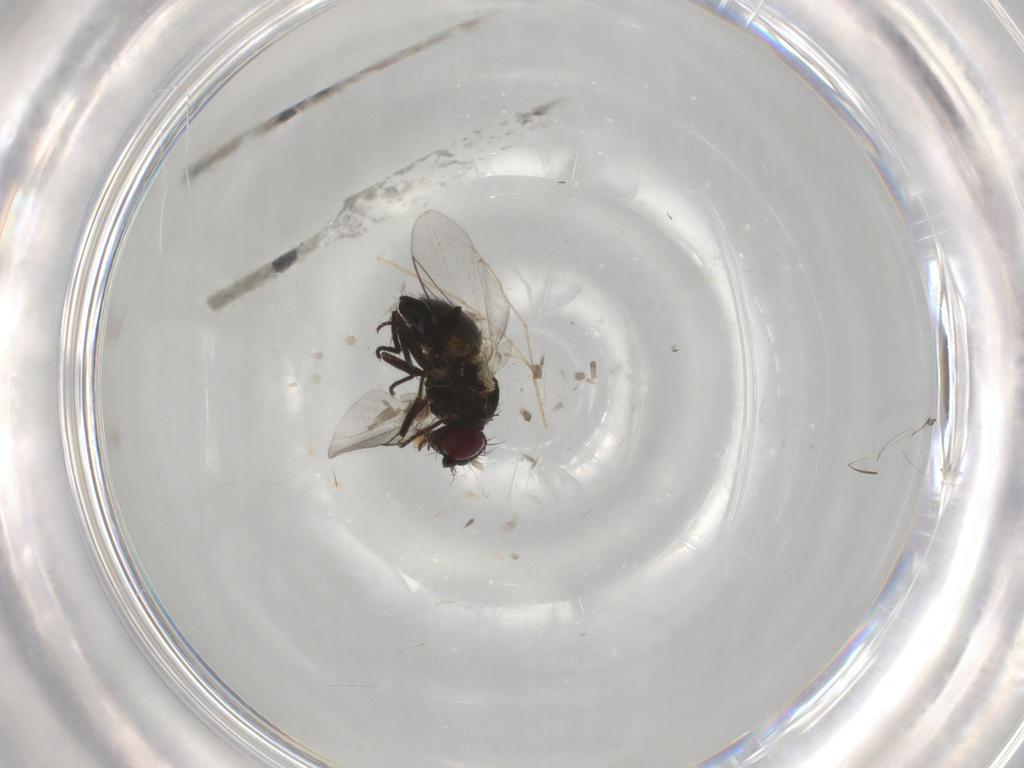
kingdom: Animalia
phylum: Arthropoda
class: Insecta
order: Diptera
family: Agromyzidae
